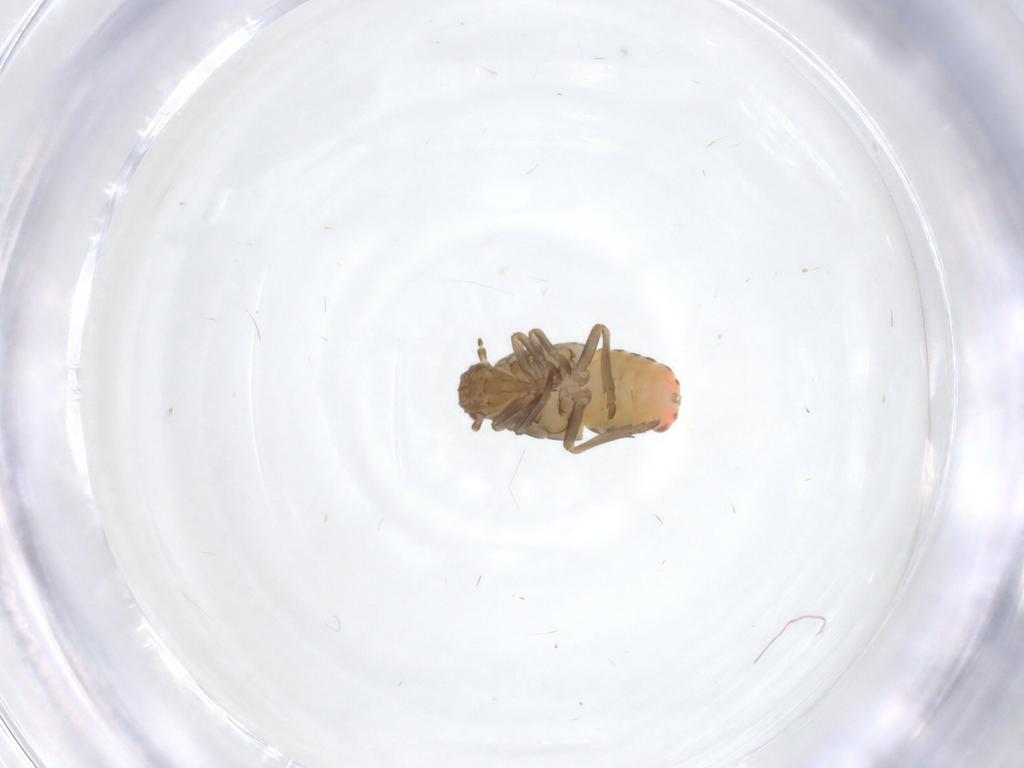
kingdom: Animalia
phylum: Arthropoda
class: Insecta
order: Hemiptera
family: Flatidae
